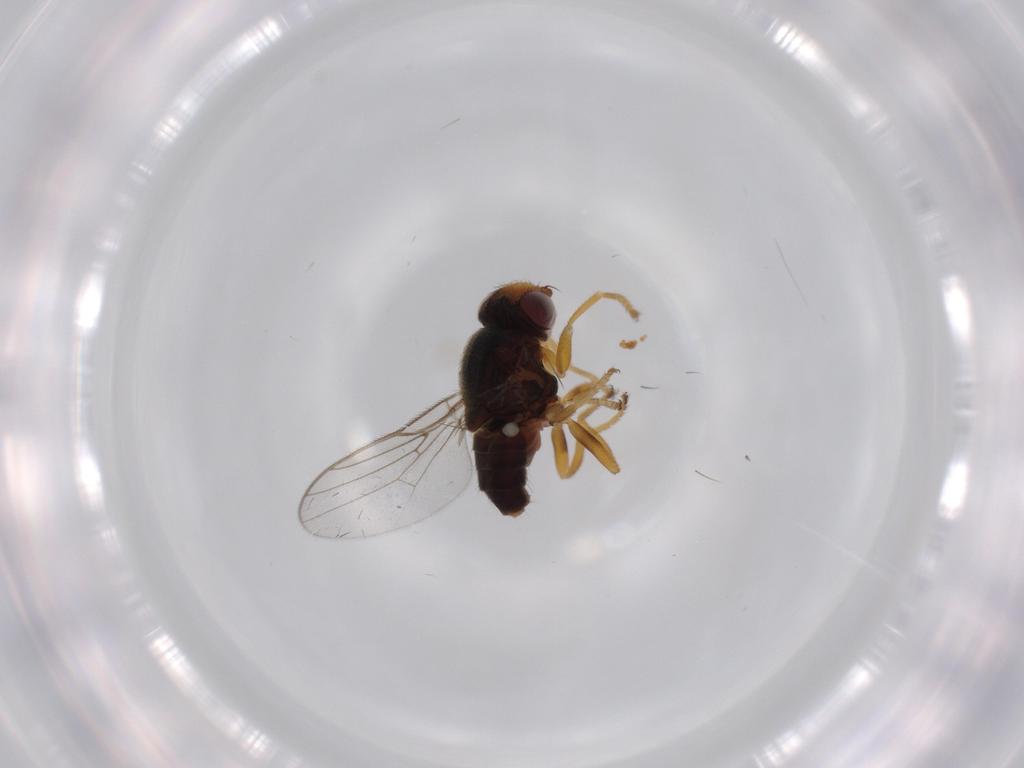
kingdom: Animalia
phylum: Arthropoda
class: Insecta
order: Diptera
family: Sphaeroceridae
